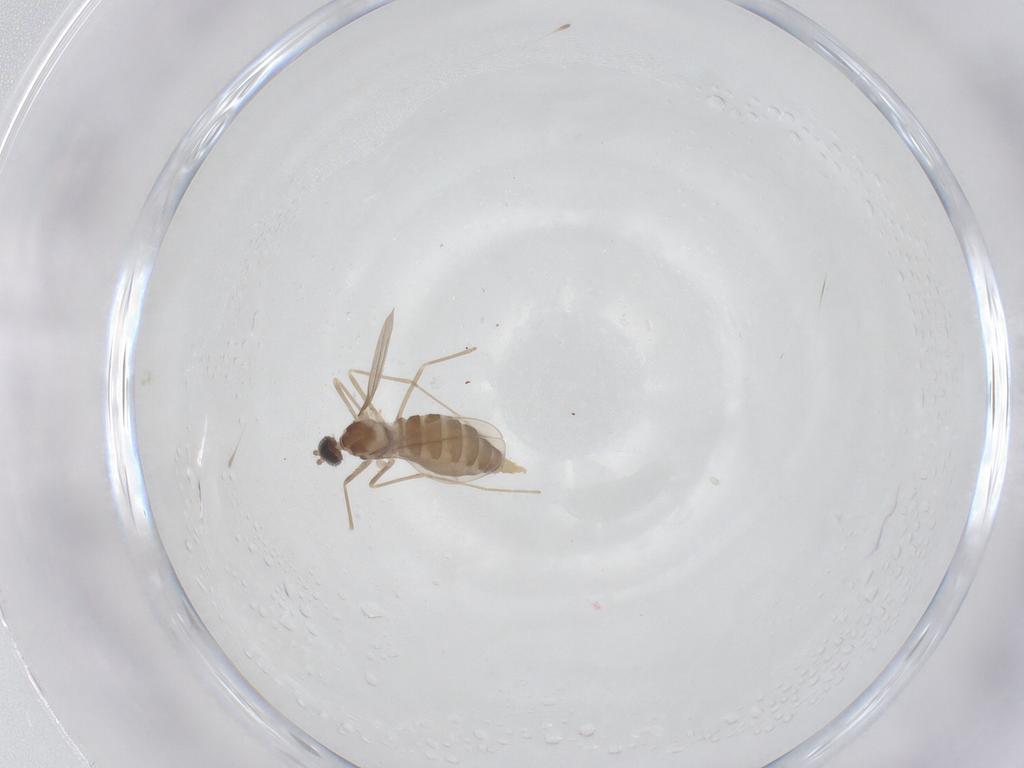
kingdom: Animalia
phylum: Arthropoda
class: Insecta
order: Diptera
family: Cecidomyiidae
